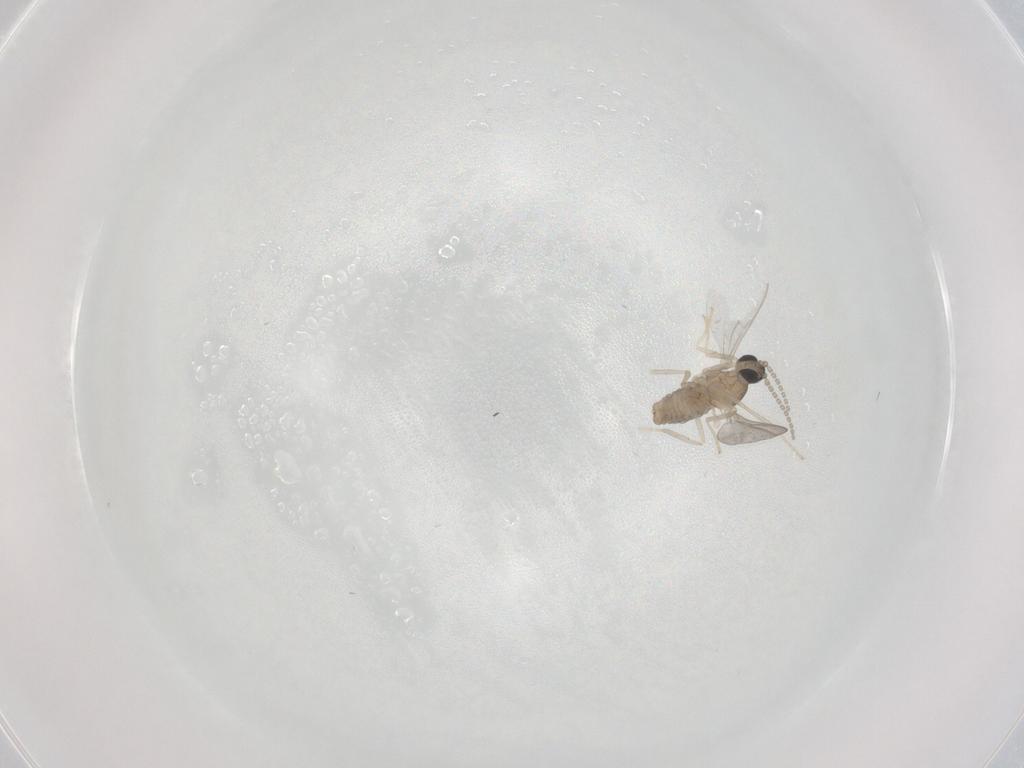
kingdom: Animalia
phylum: Arthropoda
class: Insecta
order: Diptera
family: Cecidomyiidae
